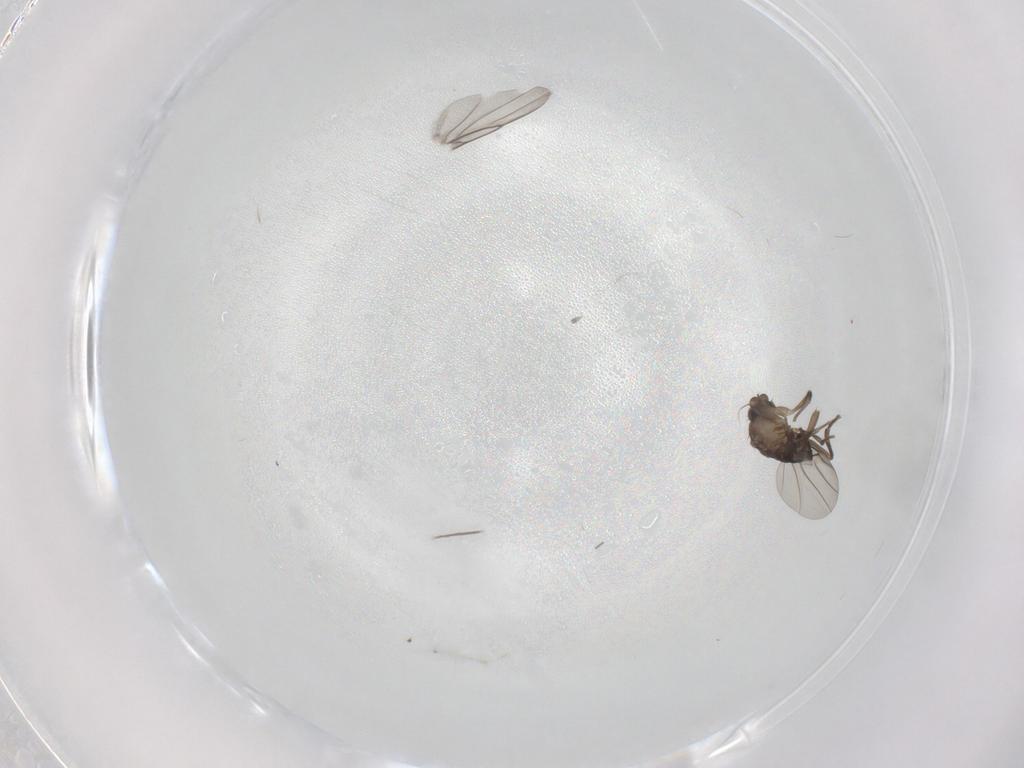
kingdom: Animalia
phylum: Arthropoda
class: Insecta
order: Diptera
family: Phoridae
